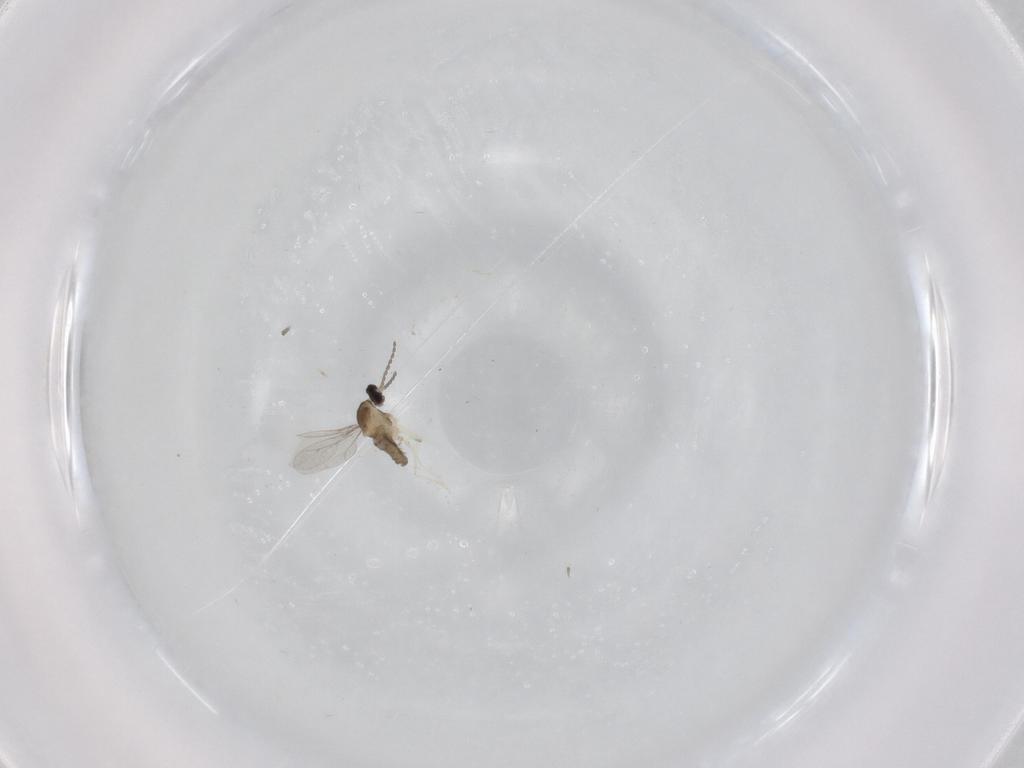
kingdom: Animalia
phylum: Arthropoda
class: Insecta
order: Diptera
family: Cecidomyiidae
